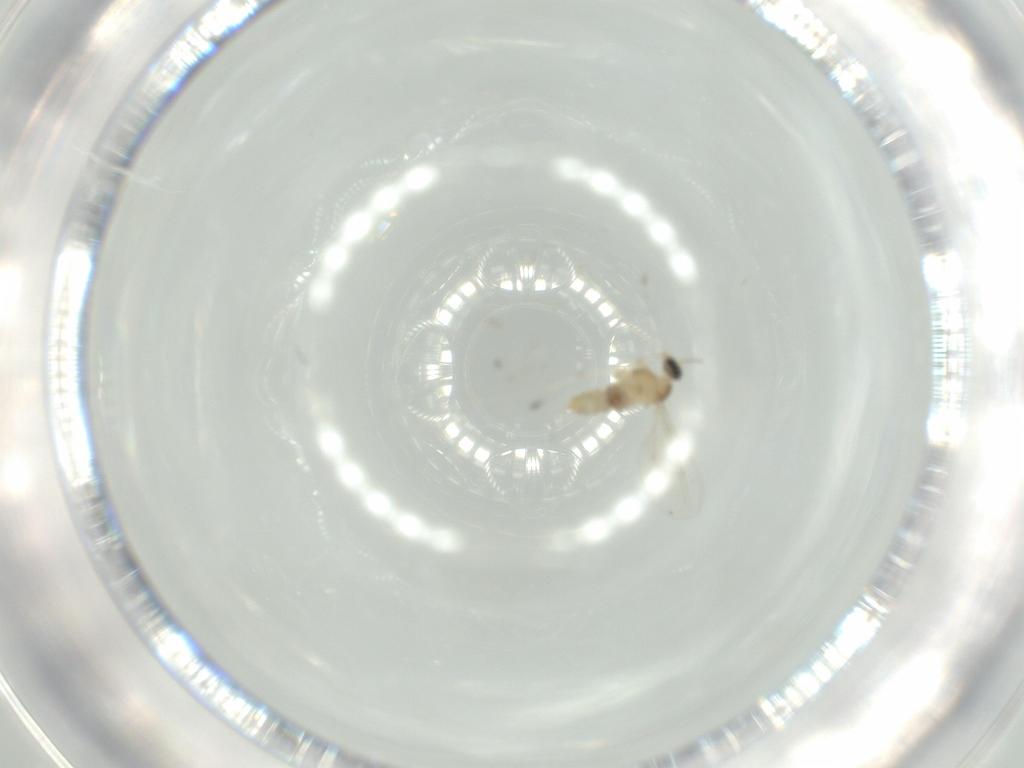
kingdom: Animalia
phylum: Arthropoda
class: Insecta
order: Diptera
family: Cecidomyiidae
